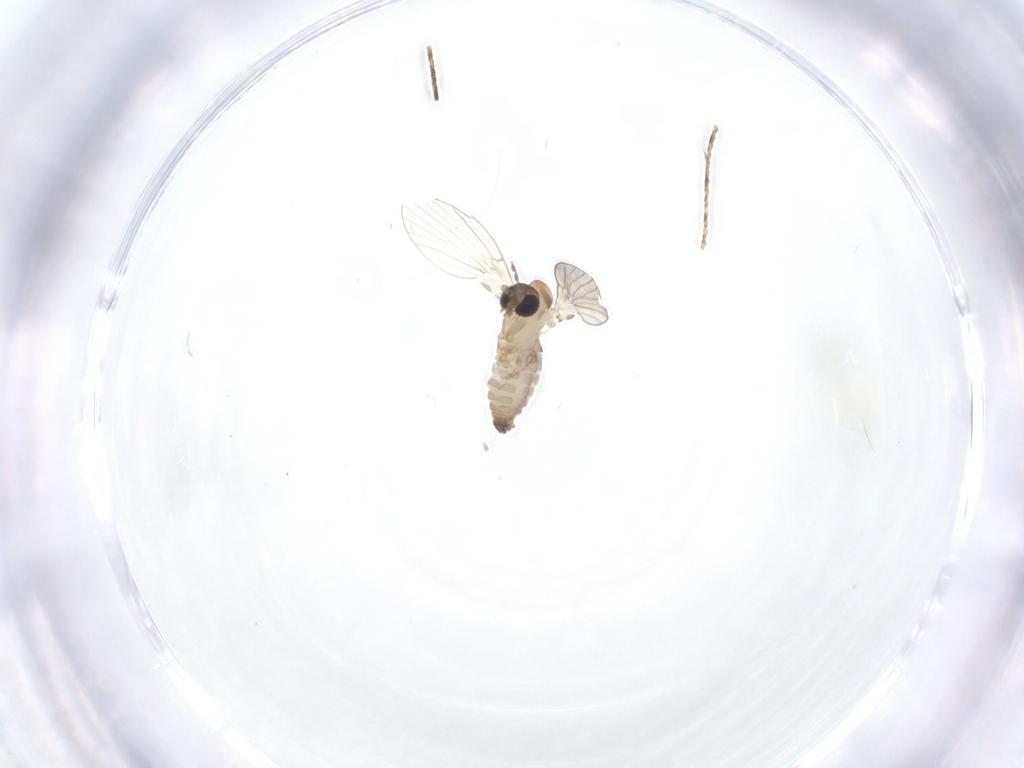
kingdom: Animalia
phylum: Arthropoda
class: Insecta
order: Diptera
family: Psychodidae
